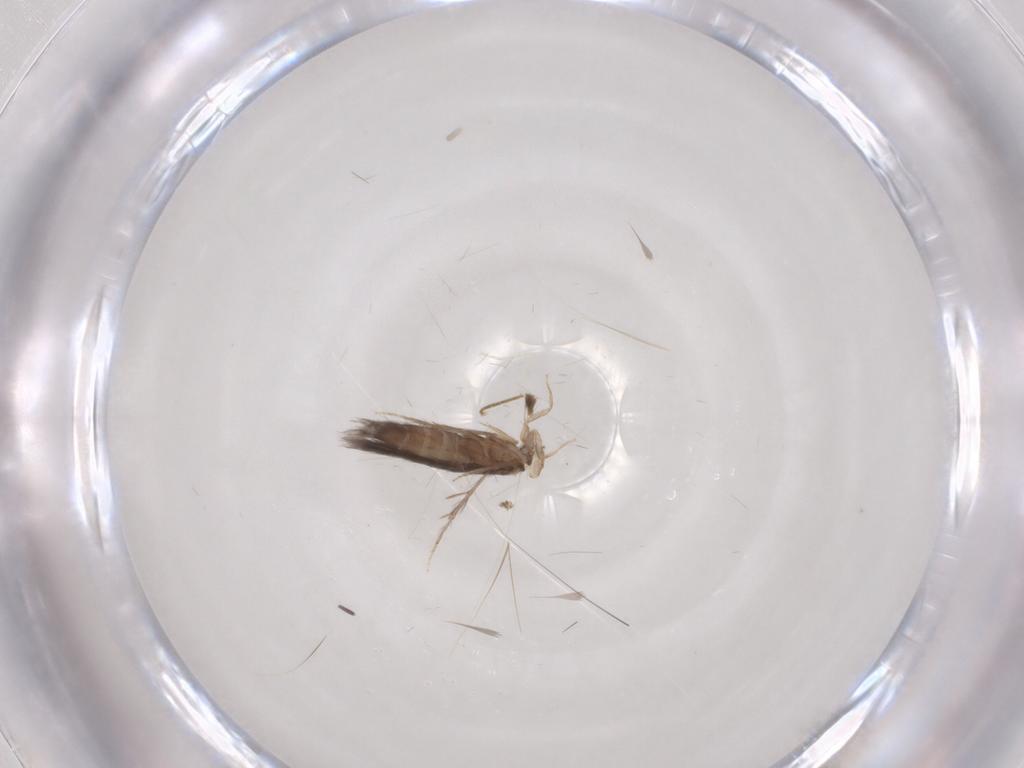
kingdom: Animalia
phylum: Arthropoda
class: Insecta
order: Trichoptera
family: Hydroptilidae
